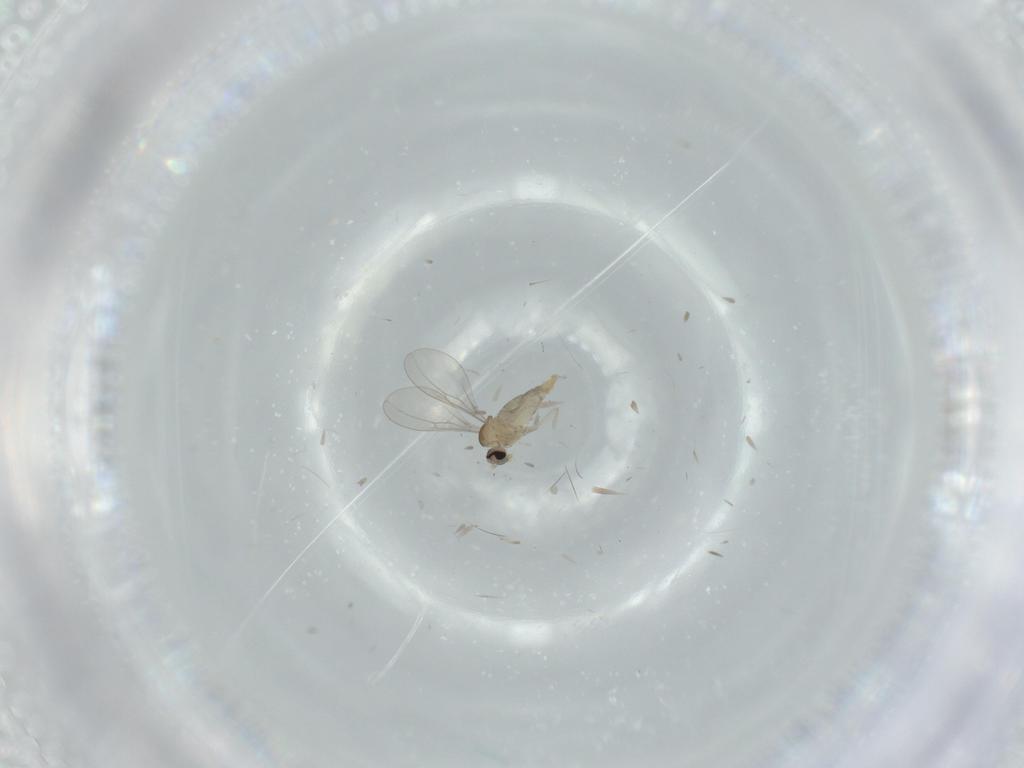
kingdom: Animalia
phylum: Arthropoda
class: Insecta
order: Diptera
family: Cecidomyiidae
